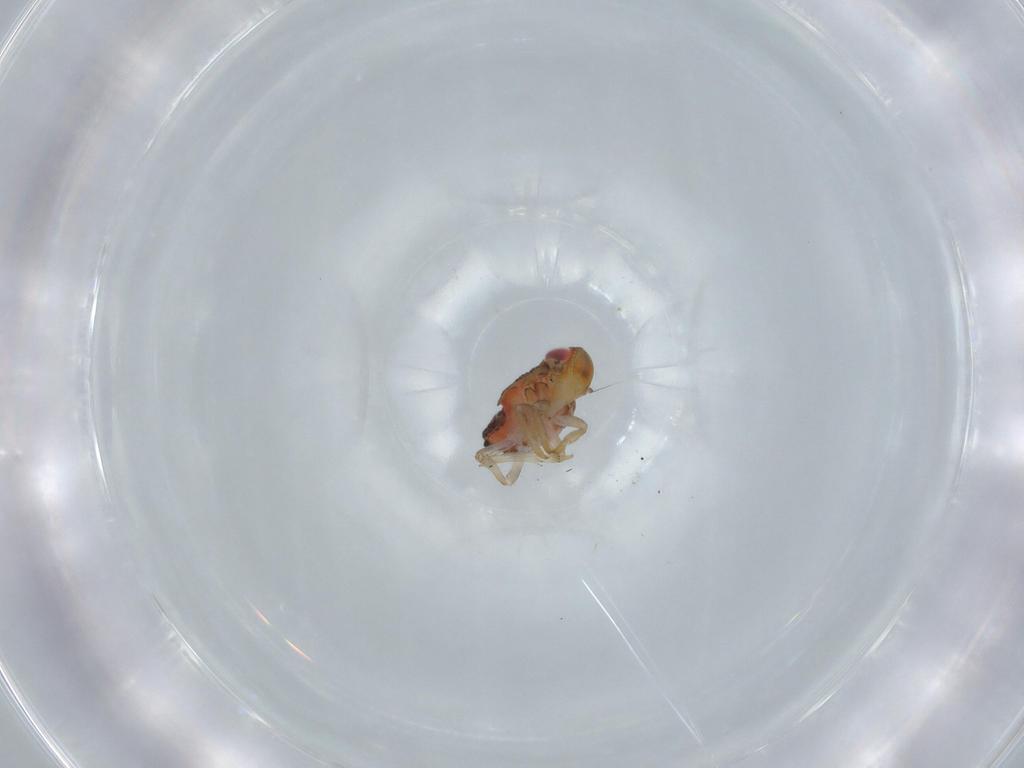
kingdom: Animalia
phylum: Arthropoda
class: Insecta
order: Hemiptera
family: Issidae
